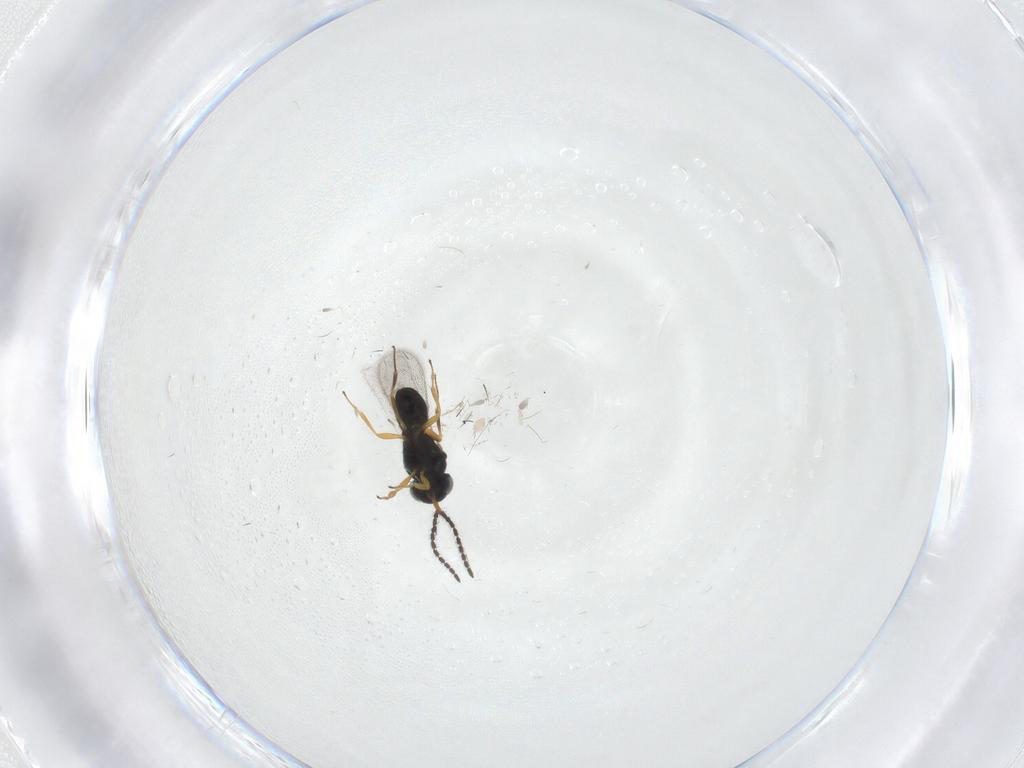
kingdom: Animalia
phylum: Arthropoda
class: Insecta
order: Hymenoptera
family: Scelionidae
